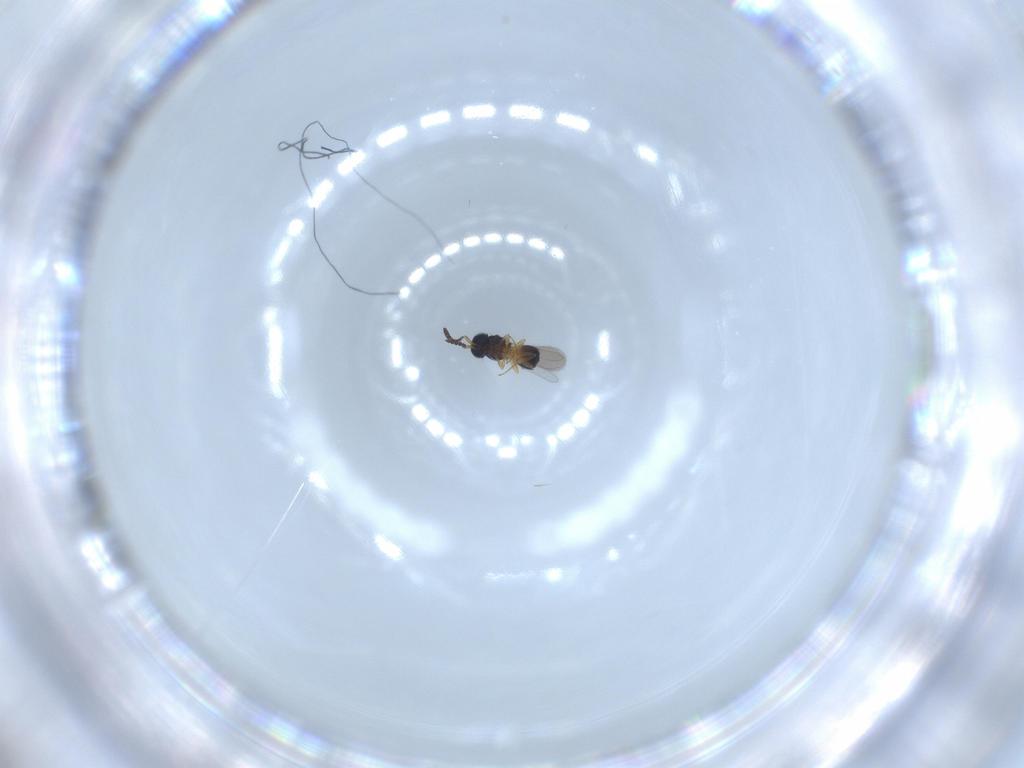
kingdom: Animalia
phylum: Arthropoda
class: Insecta
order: Hymenoptera
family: Scelionidae
